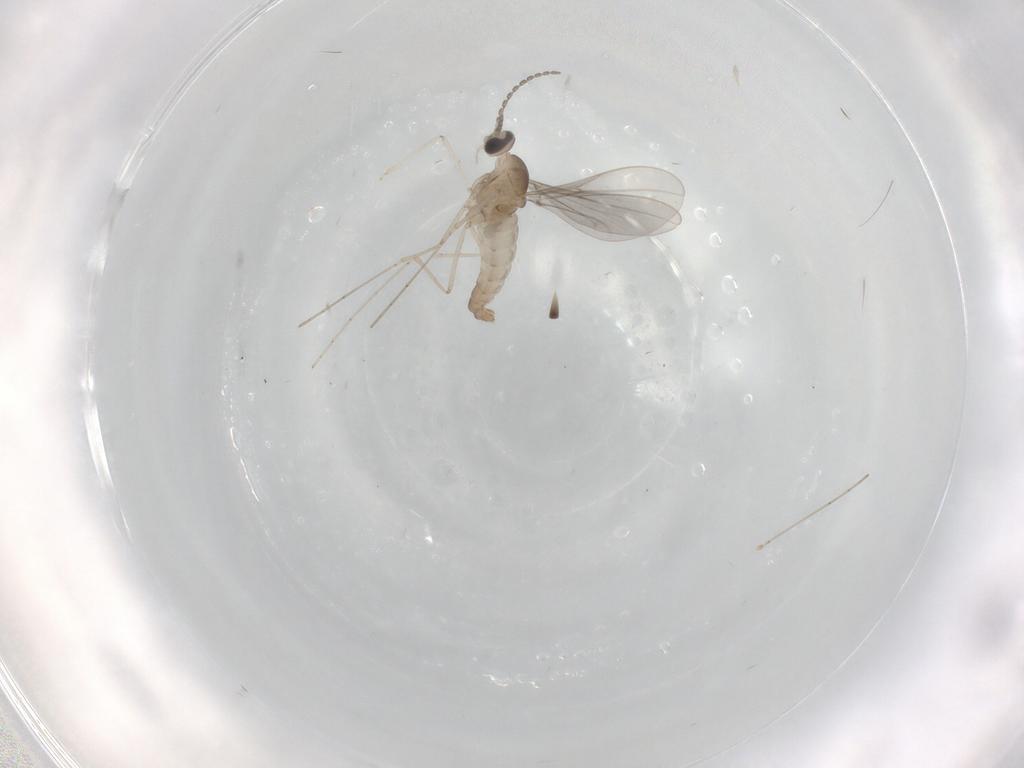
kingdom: Animalia
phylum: Arthropoda
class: Insecta
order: Diptera
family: Cecidomyiidae
